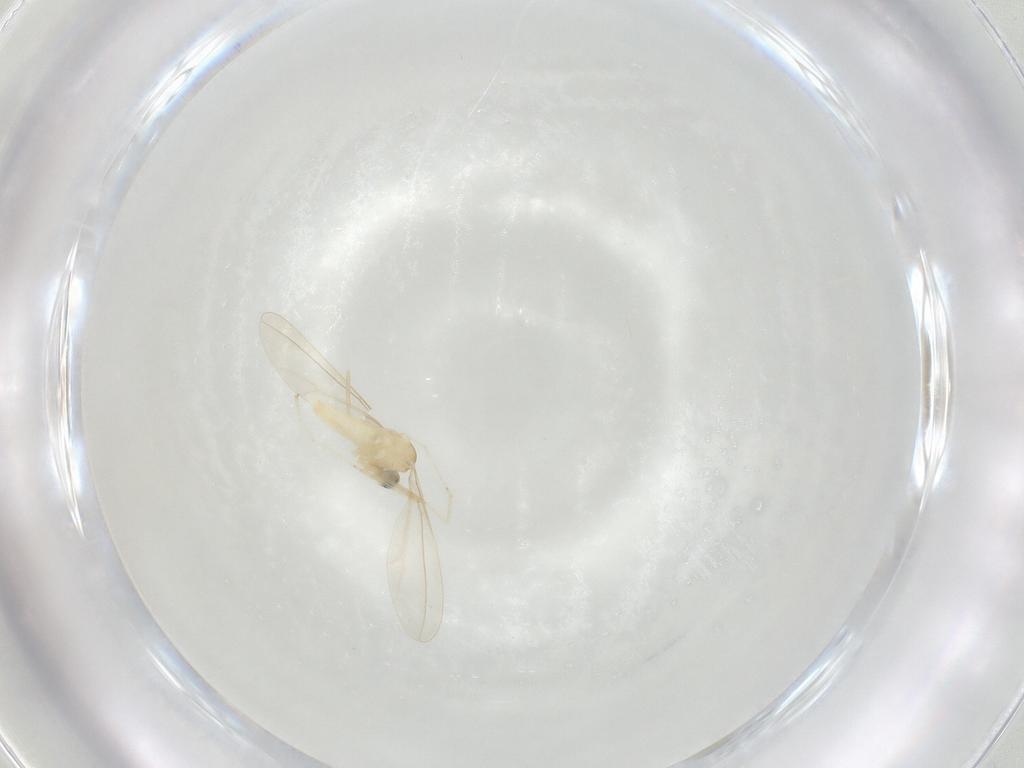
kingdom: Animalia
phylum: Arthropoda
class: Insecta
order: Diptera
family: Cecidomyiidae
